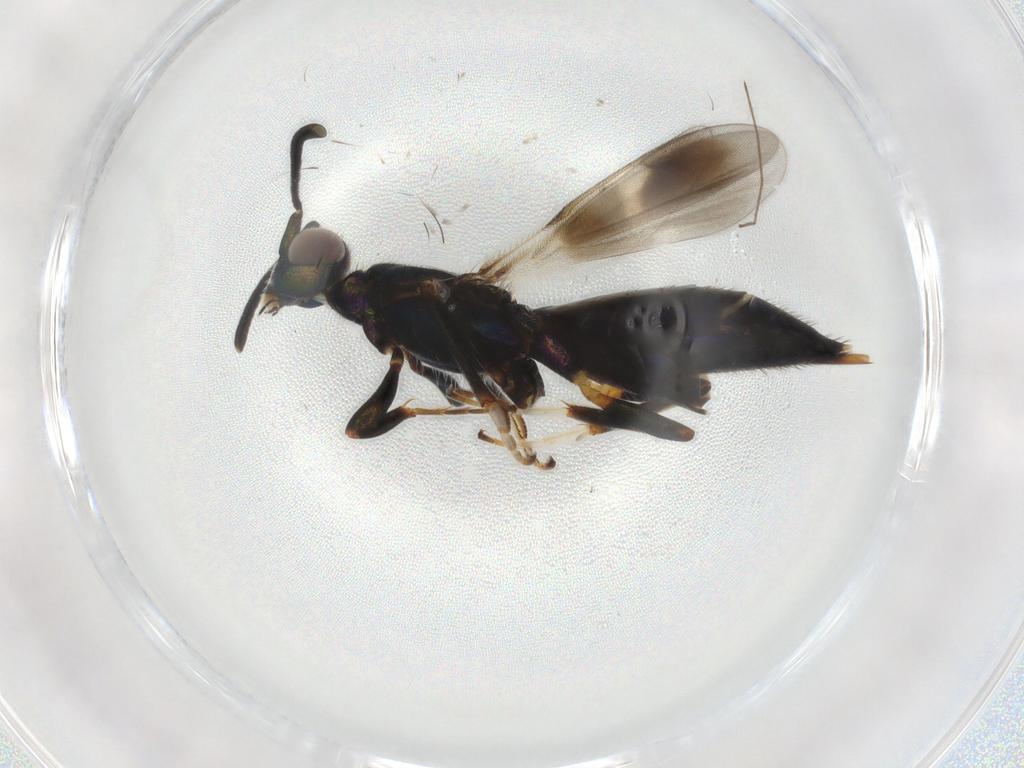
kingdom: Animalia
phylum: Arthropoda
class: Insecta
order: Hymenoptera
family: Eupelmidae
